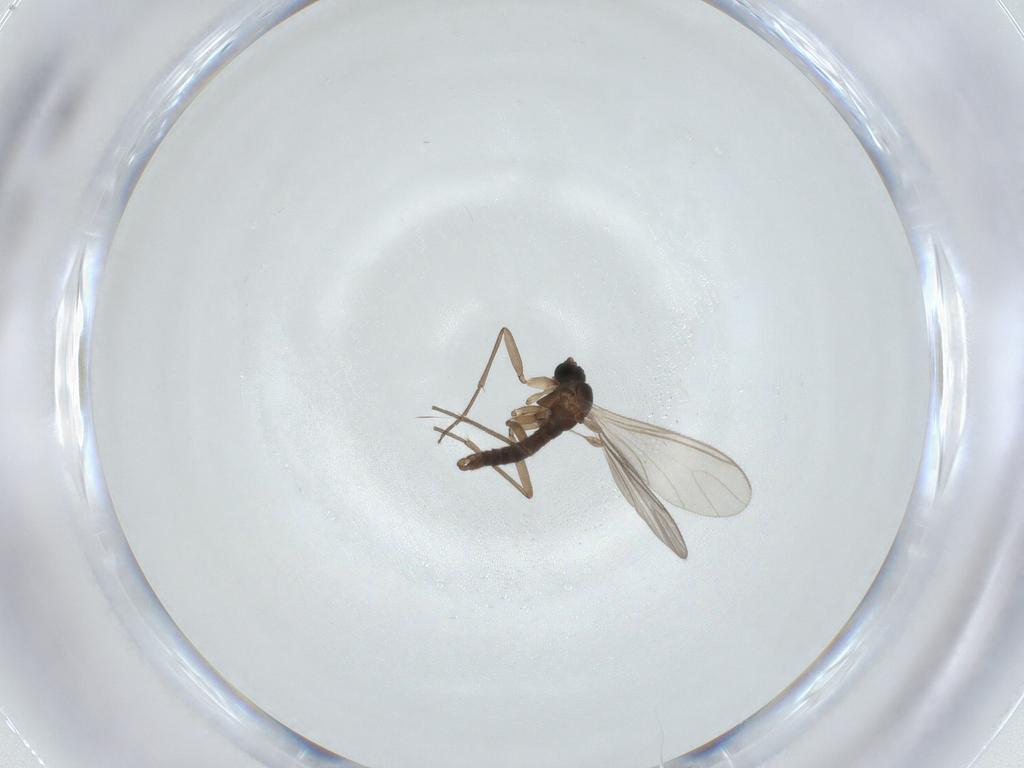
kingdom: Animalia
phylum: Arthropoda
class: Insecta
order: Diptera
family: Sciaridae
